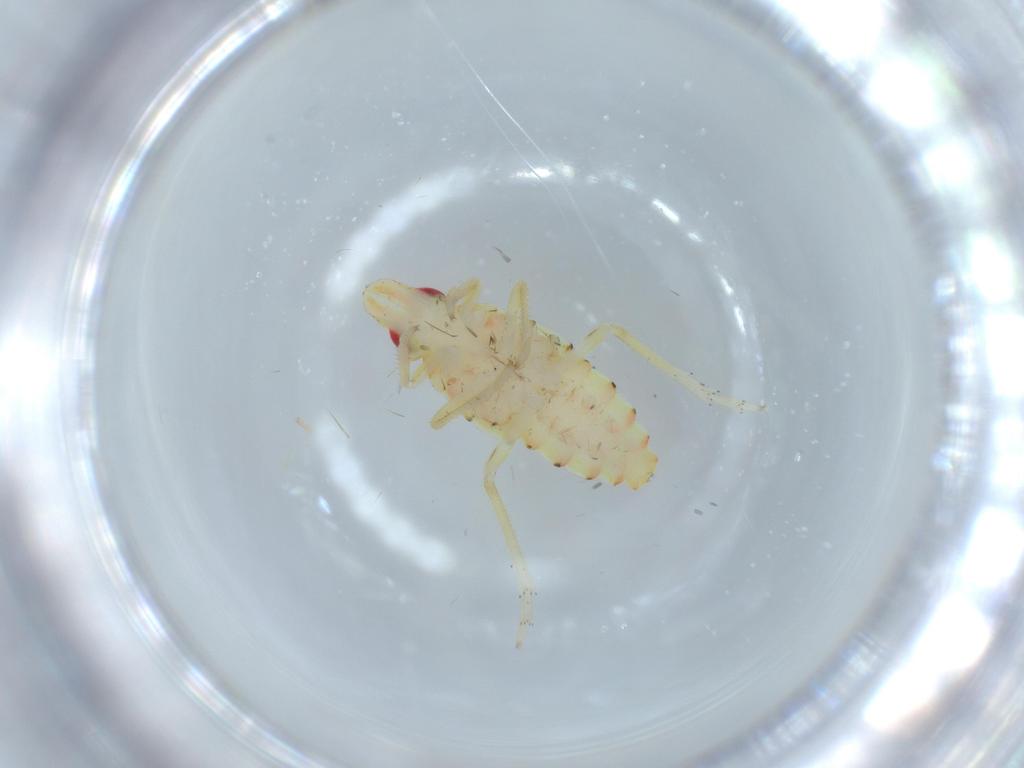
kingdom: Animalia
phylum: Arthropoda
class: Insecta
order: Hemiptera
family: Tropiduchidae
